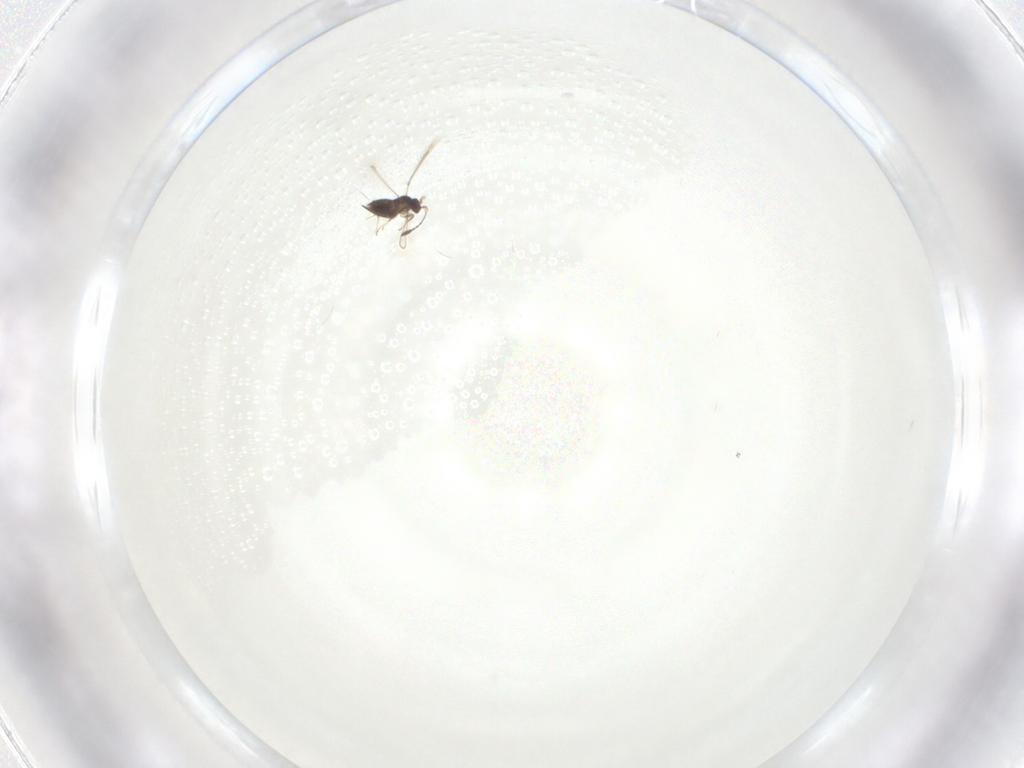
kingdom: Animalia
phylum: Arthropoda
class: Insecta
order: Hymenoptera
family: Mymaridae
